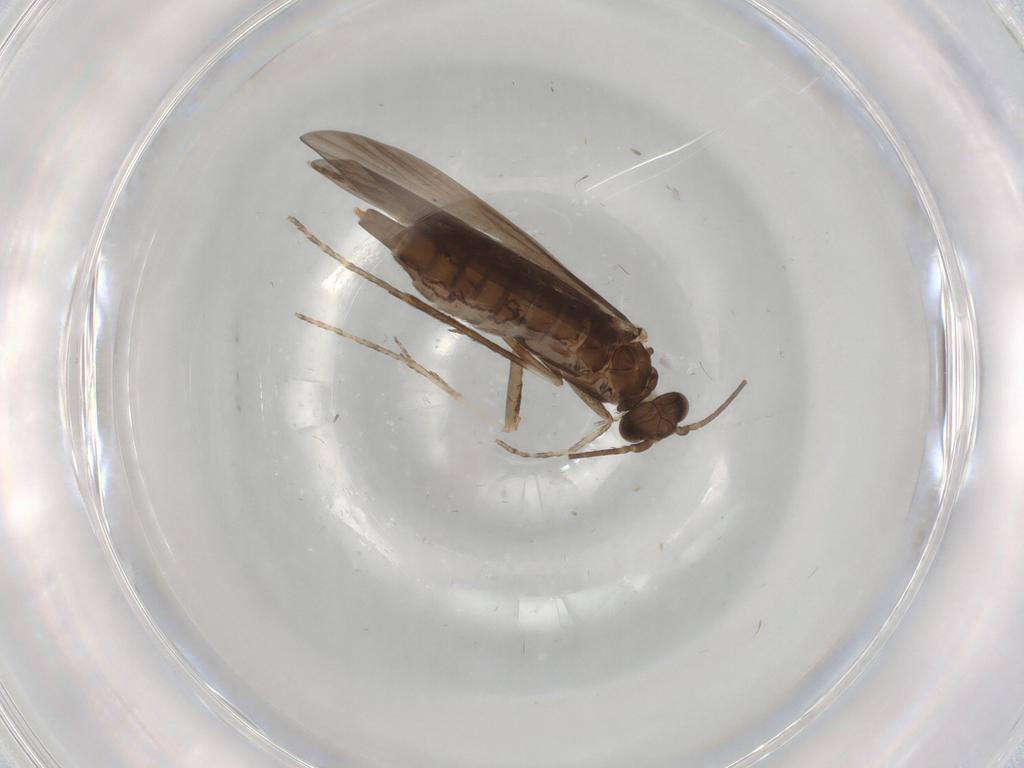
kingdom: Animalia
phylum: Arthropoda
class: Insecta
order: Trichoptera
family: Xiphocentronidae
